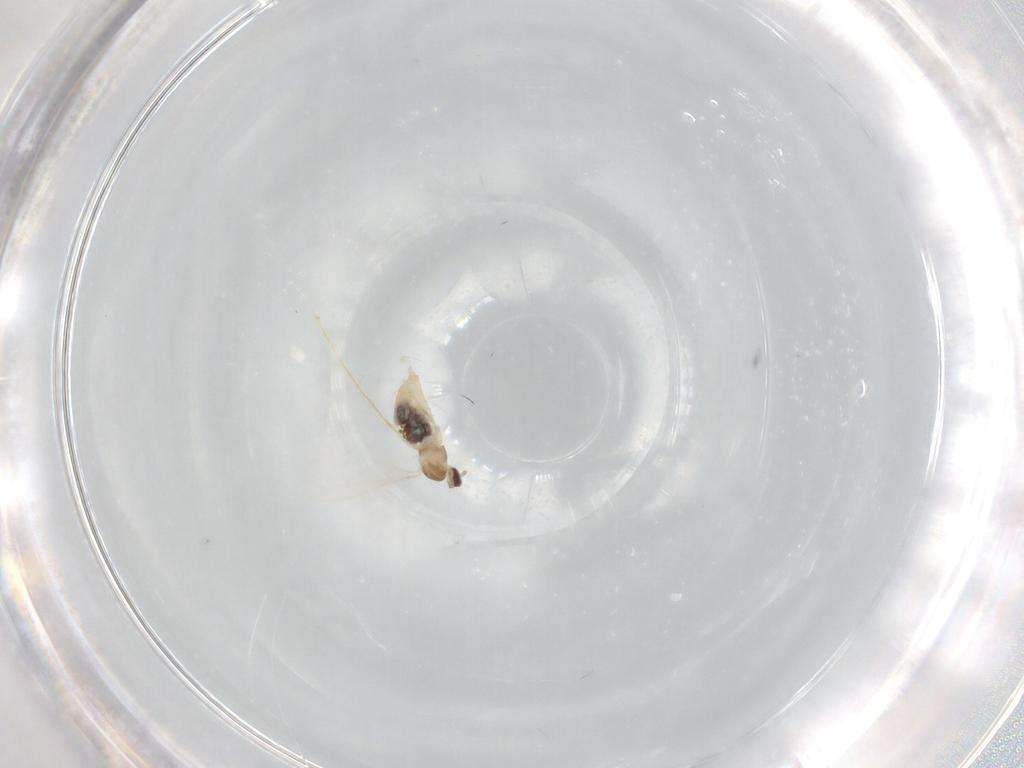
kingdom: Animalia
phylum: Arthropoda
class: Insecta
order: Diptera
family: Cecidomyiidae
